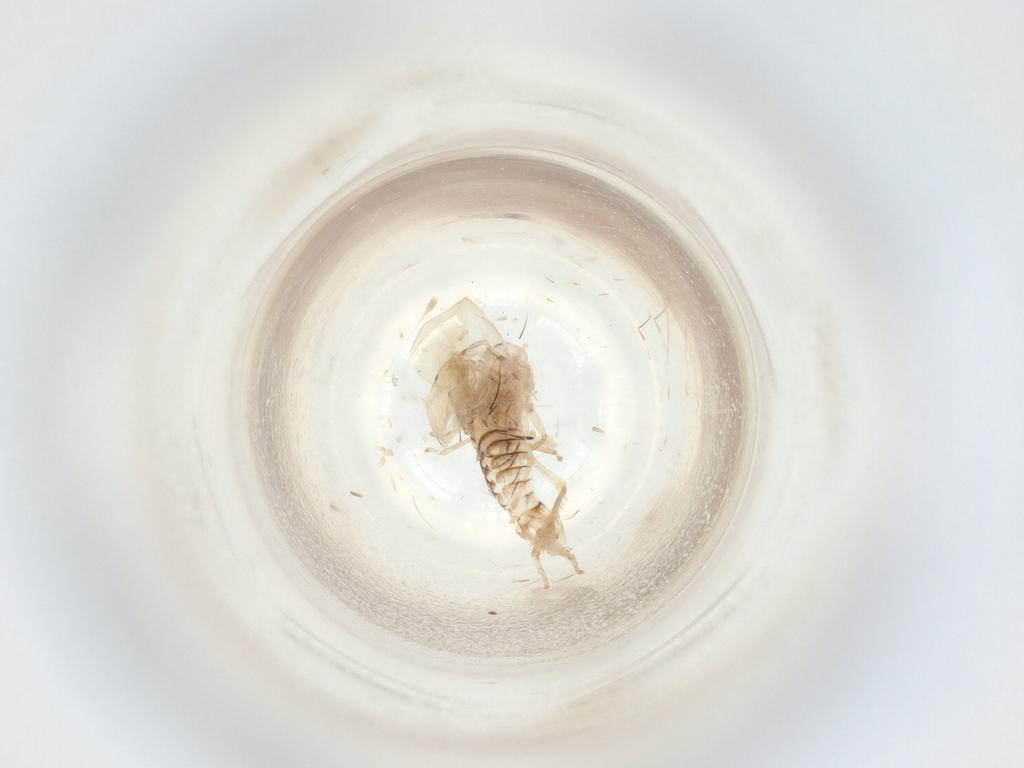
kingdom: Animalia
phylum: Arthropoda
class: Insecta
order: Hemiptera
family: Cicadellidae
